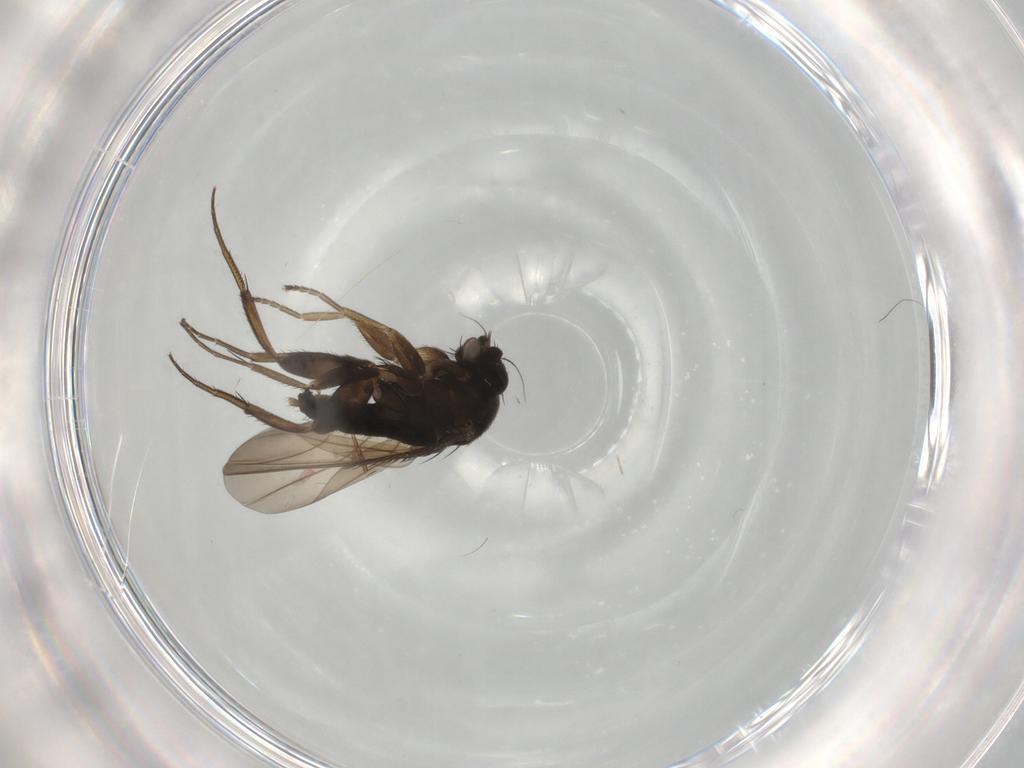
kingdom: Animalia
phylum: Arthropoda
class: Insecta
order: Diptera
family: Phoridae
